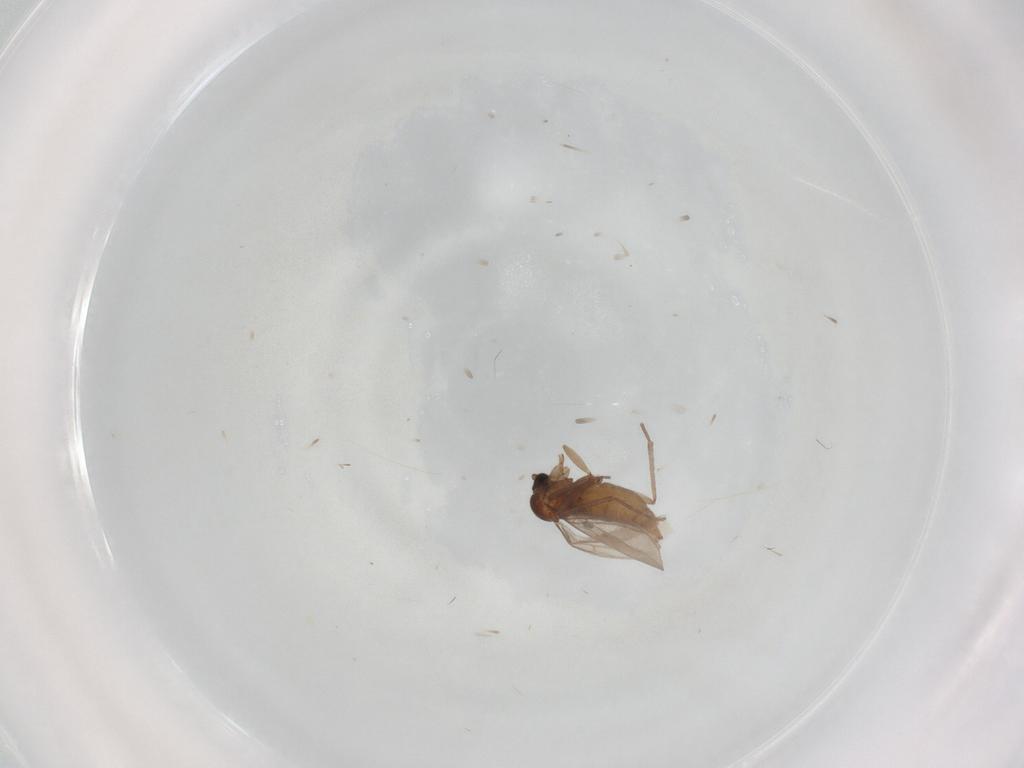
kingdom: Animalia
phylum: Arthropoda
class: Insecta
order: Diptera
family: Sciaridae
